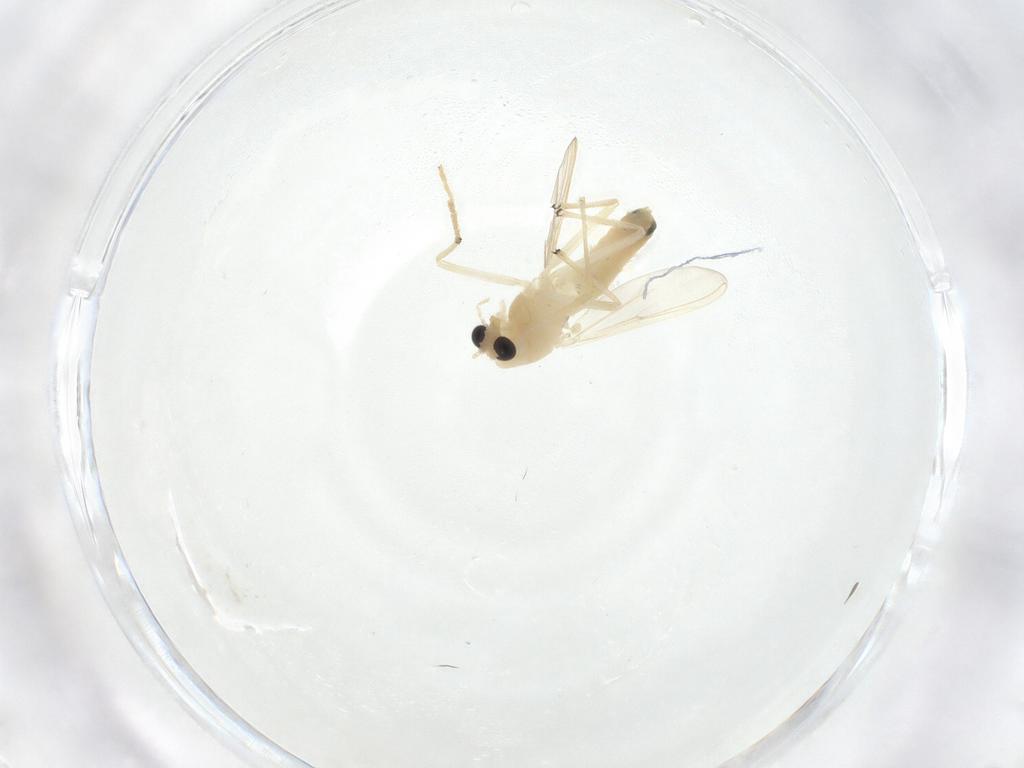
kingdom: Animalia
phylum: Arthropoda
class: Insecta
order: Diptera
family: Chironomidae
